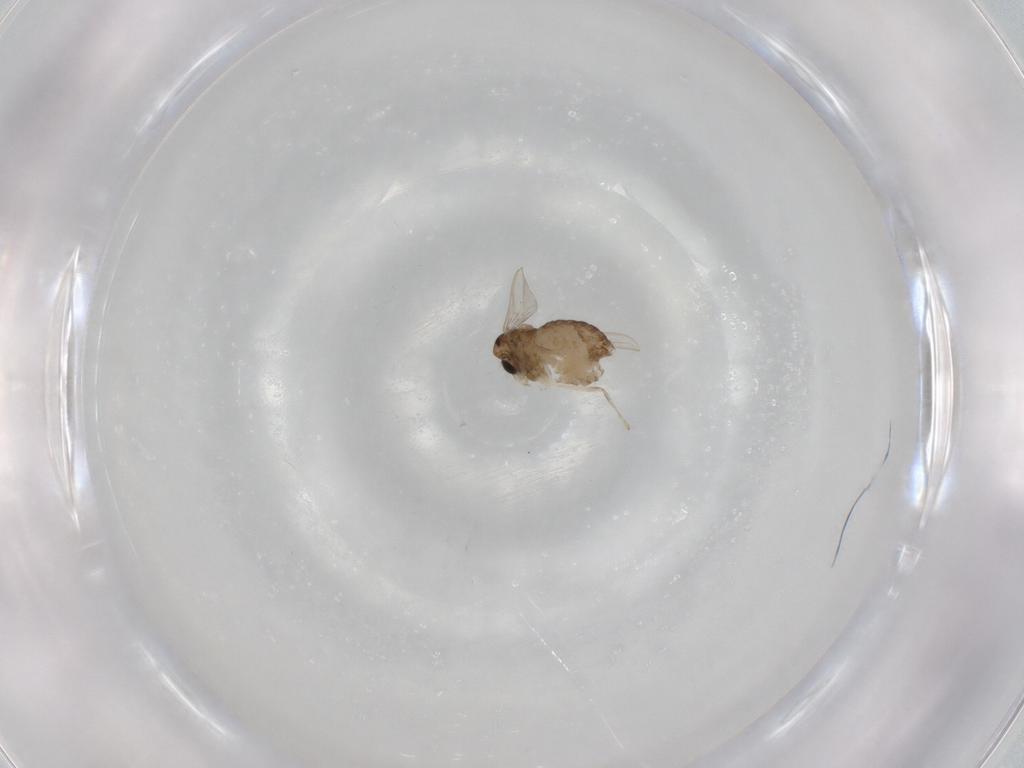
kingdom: Animalia
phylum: Arthropoda
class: Insecta
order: Diptera
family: Chironomidae
